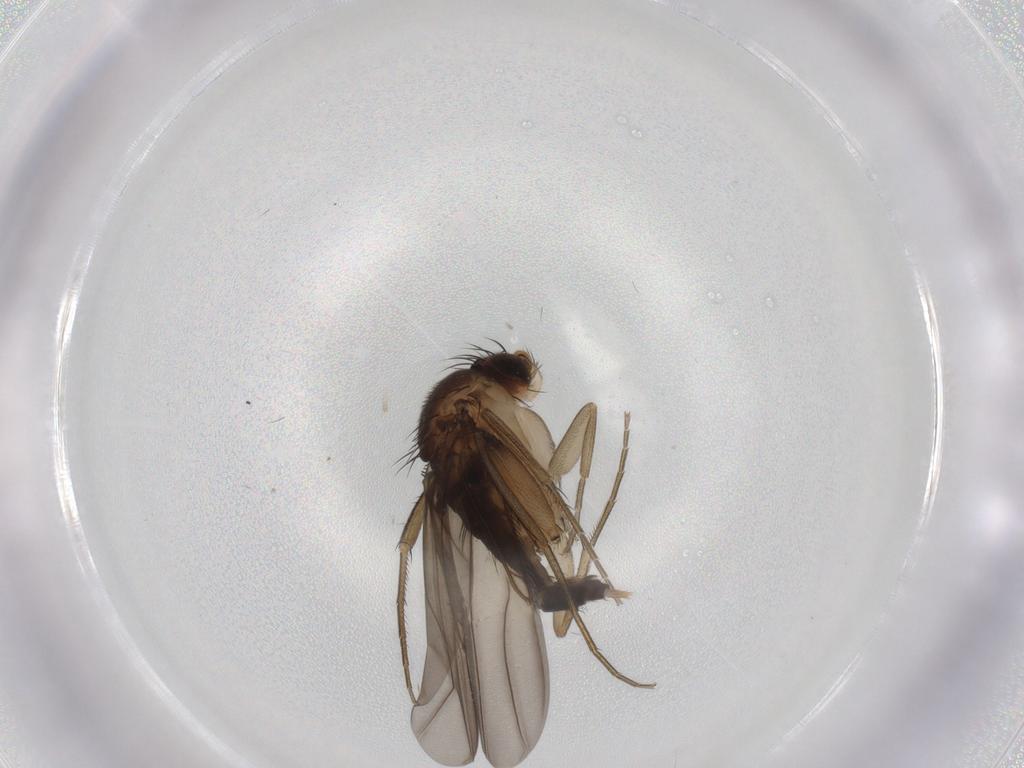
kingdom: Animalia
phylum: Arthropoda
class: Insecta
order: Diptera
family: Phoridae
